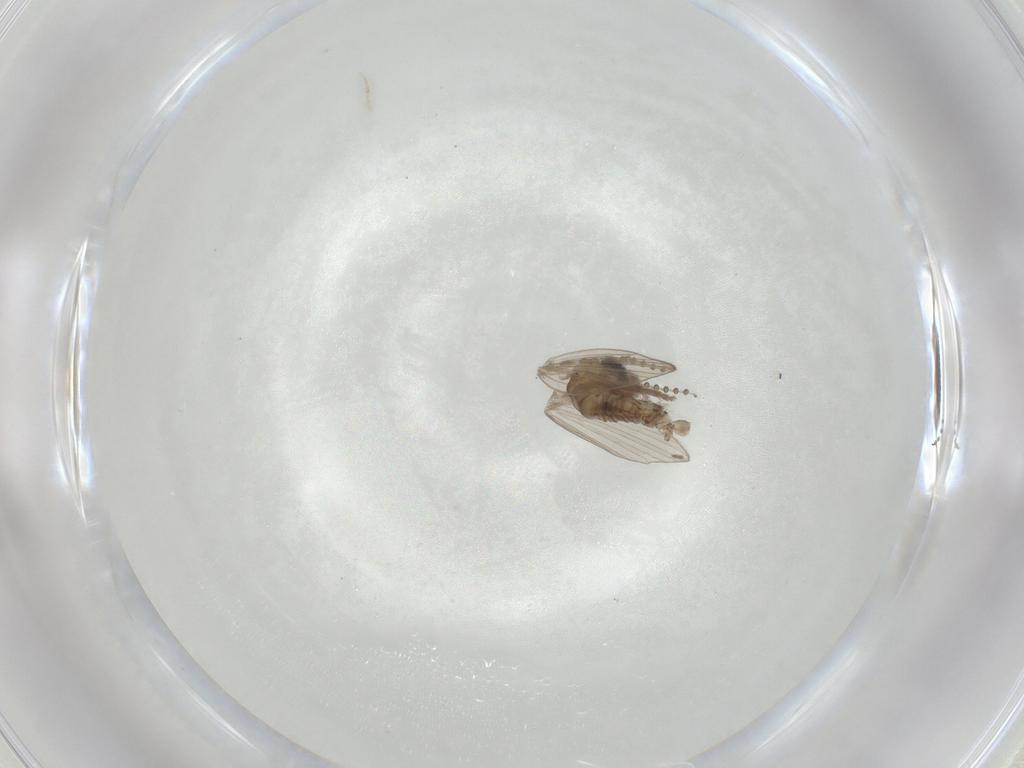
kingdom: Animalia
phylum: Arthropoda
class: Insecta
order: Diptera
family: Psychodidae
